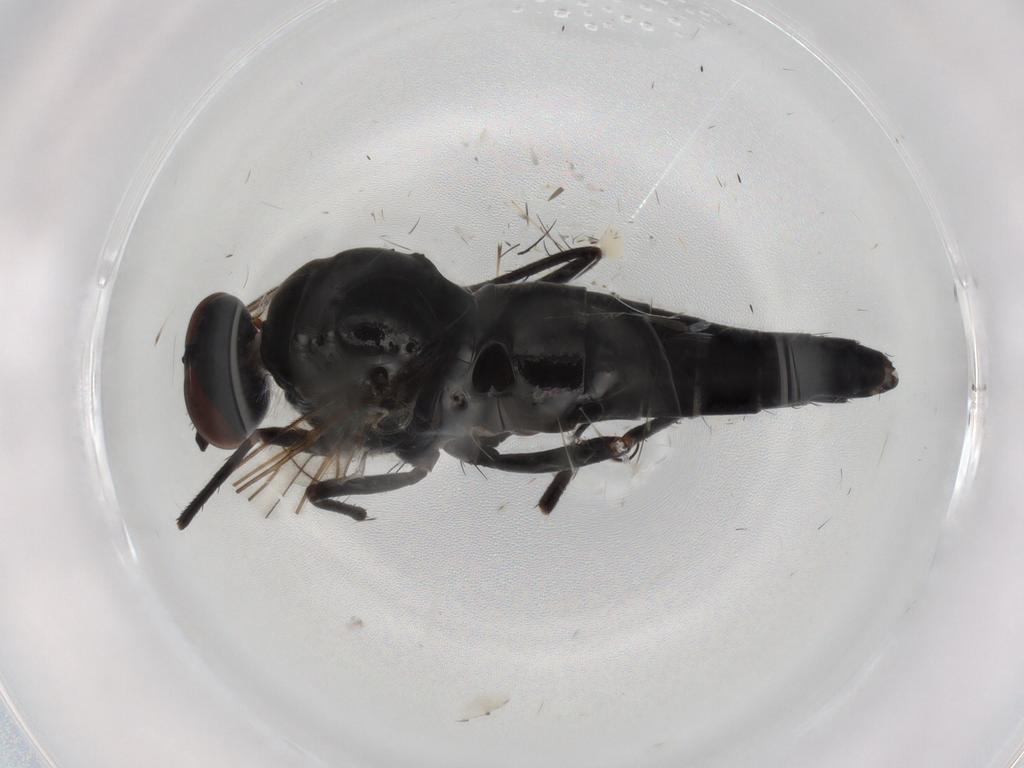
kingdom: Animalia
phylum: Arthropoda
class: Insecta
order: Diptera
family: Therevidae
